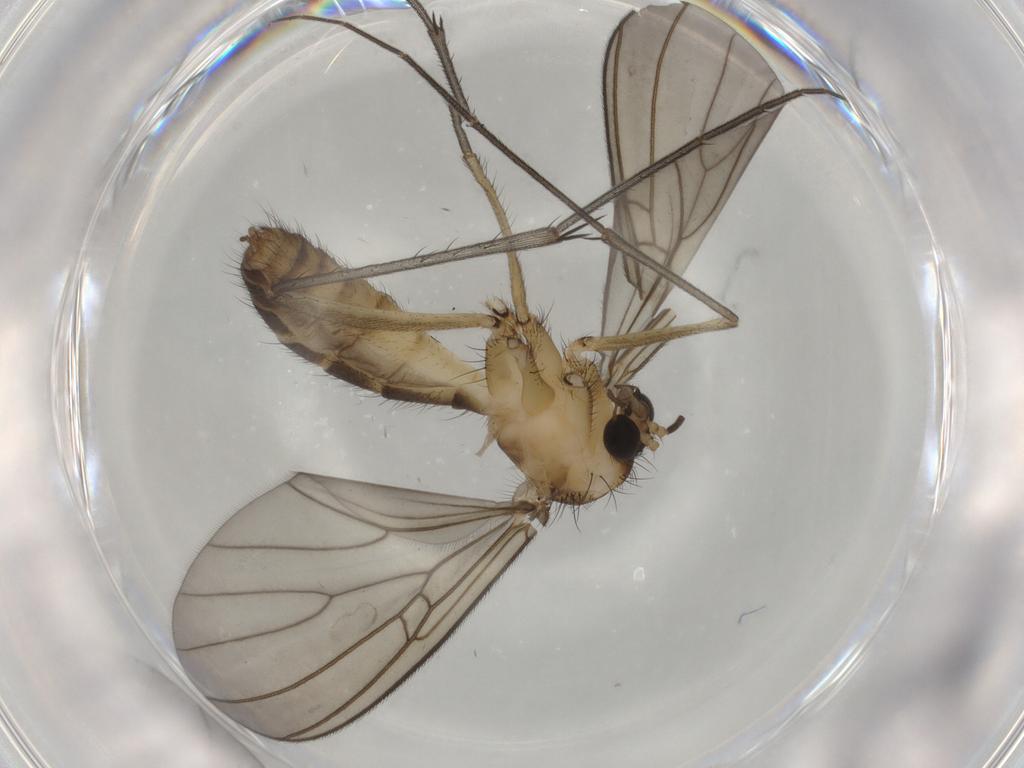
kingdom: Animalia
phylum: Arthropoda
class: Insecta
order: Diptera
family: Mycetophilidae
